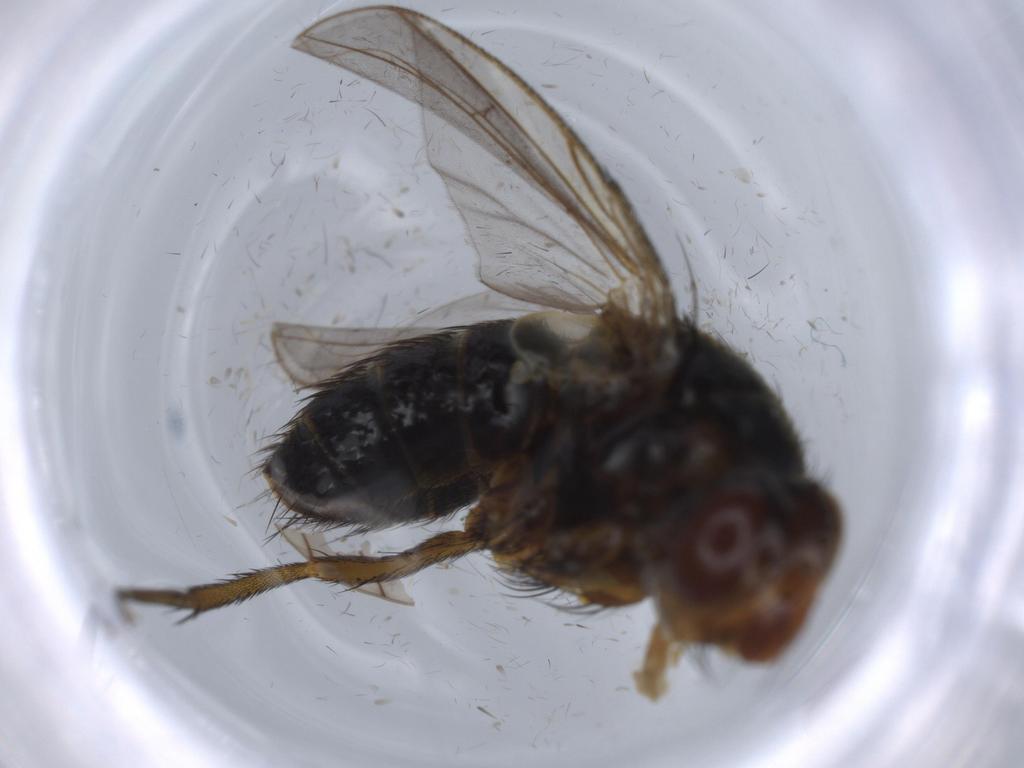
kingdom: Animalia
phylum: Arthropoda
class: Insecta
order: Diptera
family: Tachinidae
